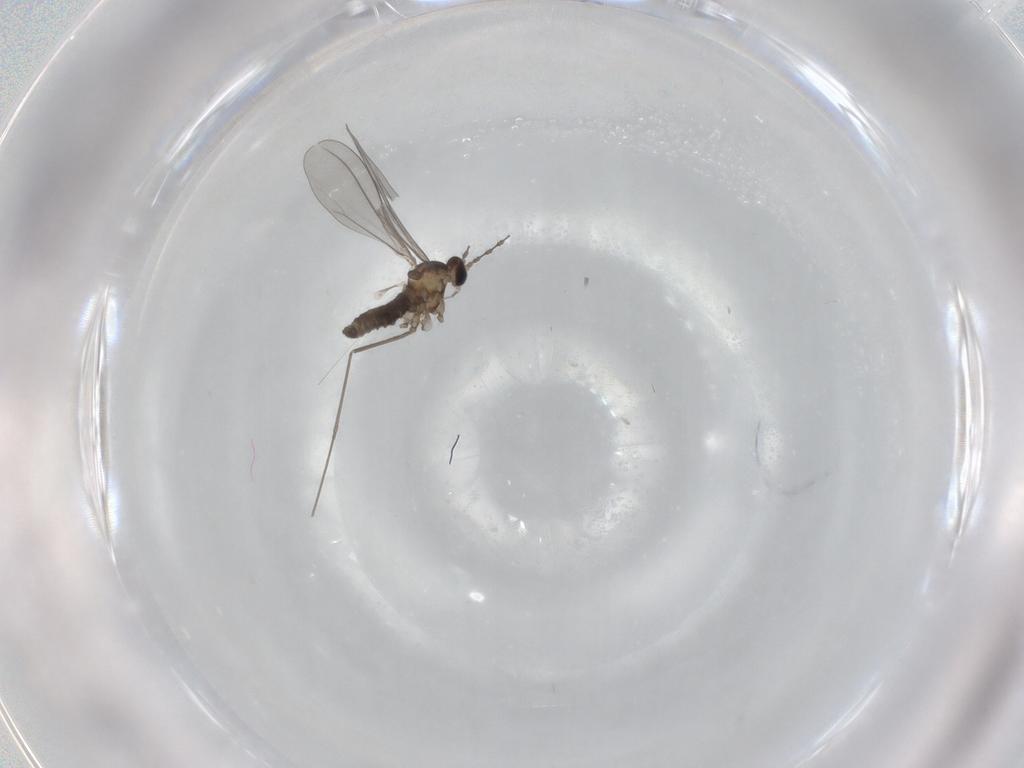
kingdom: Animalia
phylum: Arthropoda
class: Insecta
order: Diptera
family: Cecidomyiidae
